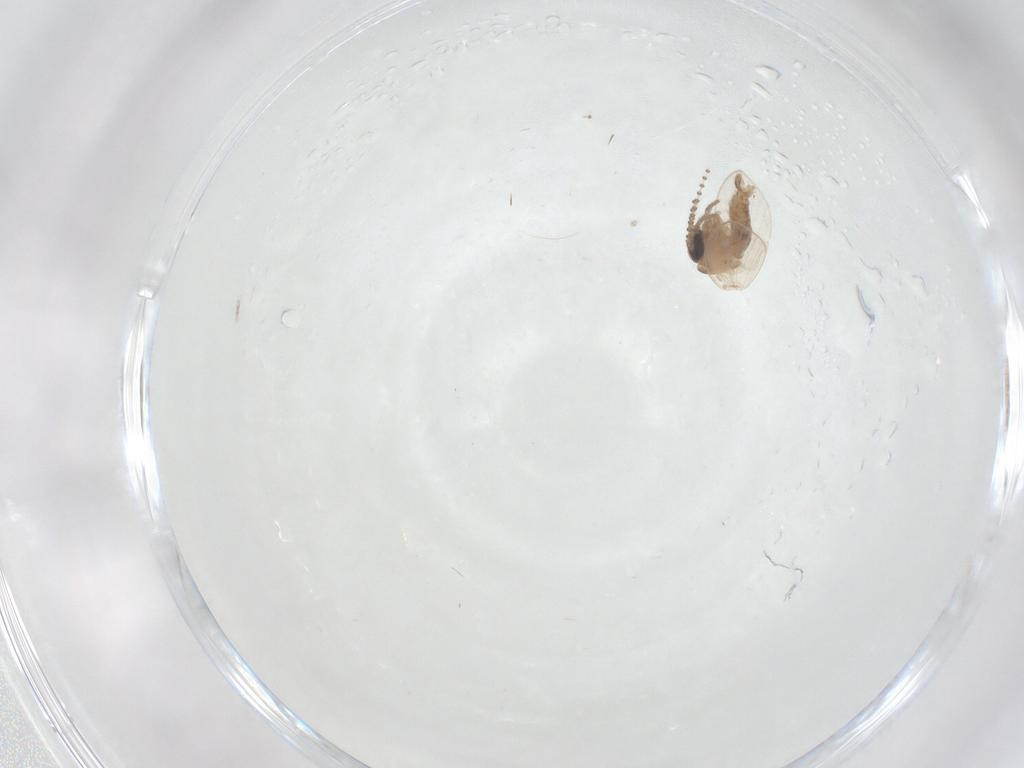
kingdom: Animalia
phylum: Arthropoda
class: Insecta
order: Diptera
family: Psychodidae
